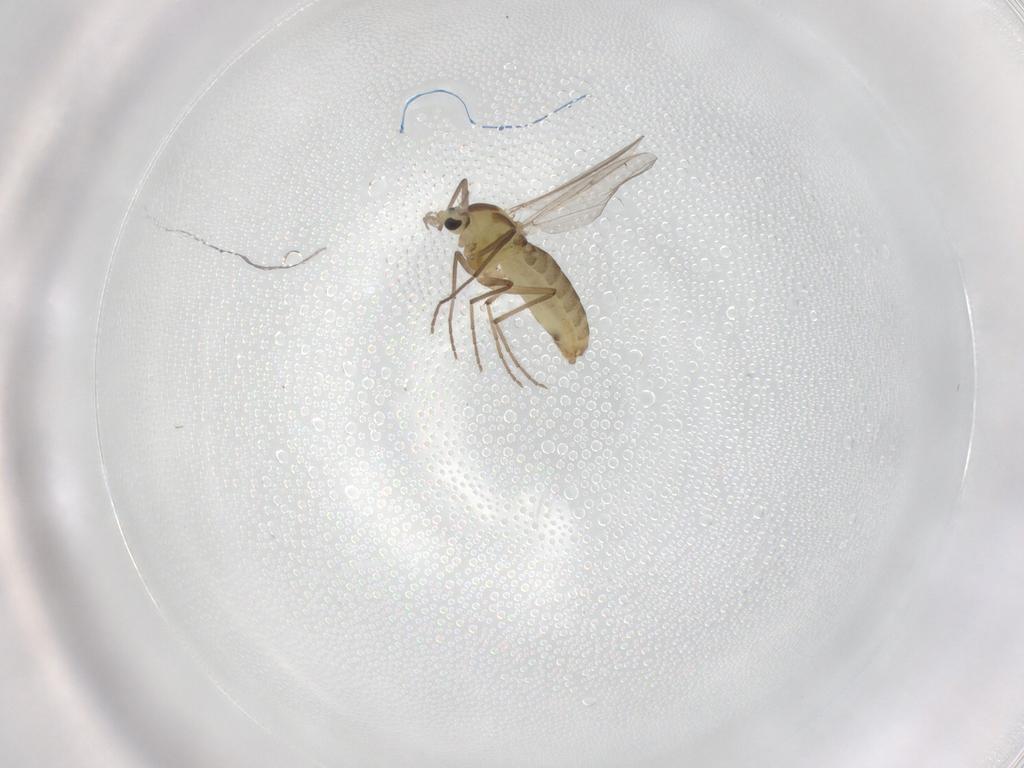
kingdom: Animalia
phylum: Arthropoda
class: Insecta
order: Diptera
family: Chironomidae
